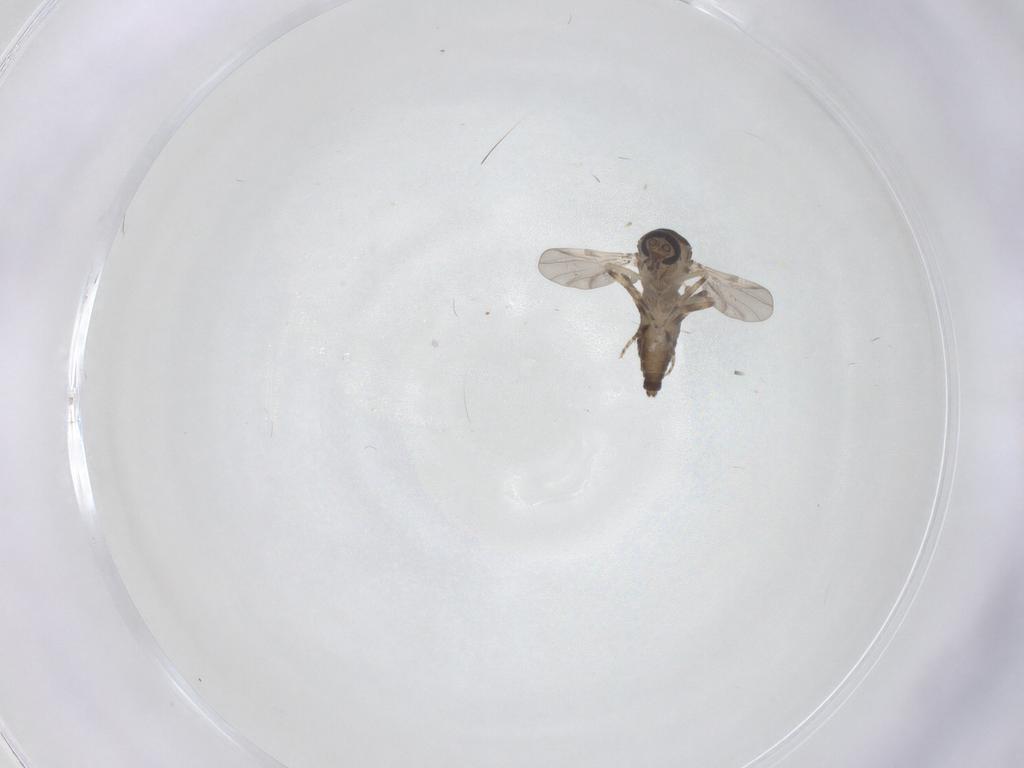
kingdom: Animalia
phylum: Arthropoda
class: Insecta
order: Diptera
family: Ceratopogonidae
